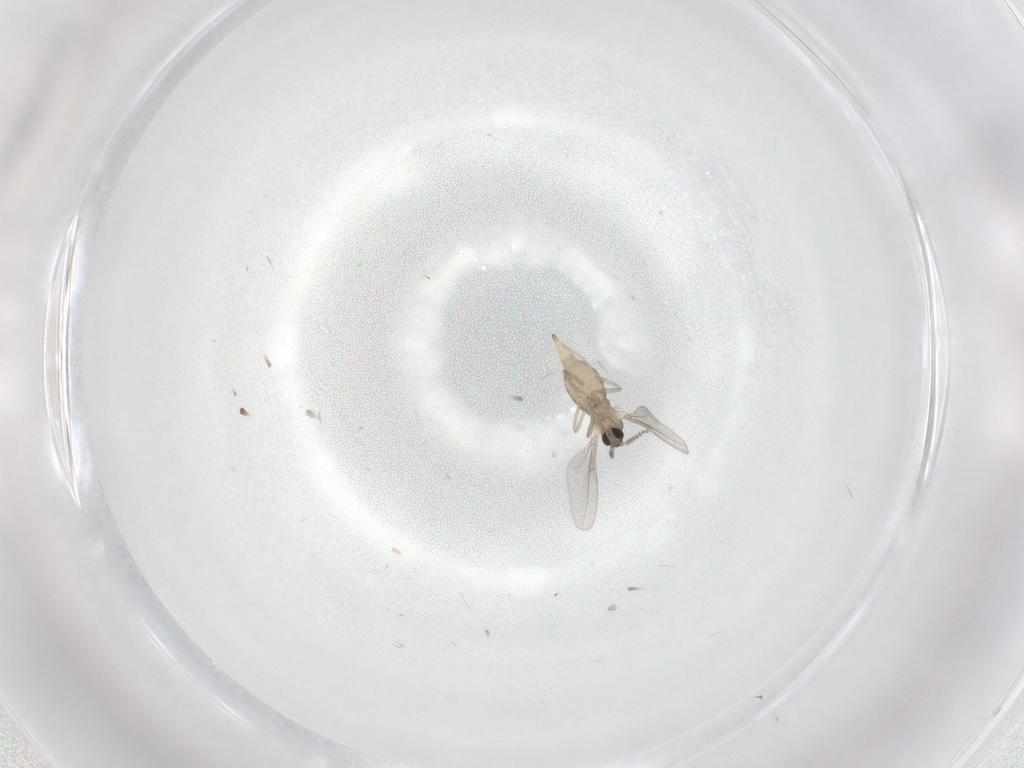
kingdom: Animalia
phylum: Arthropoda
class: Insecta
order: Diptera
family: Cecidomyiidae
